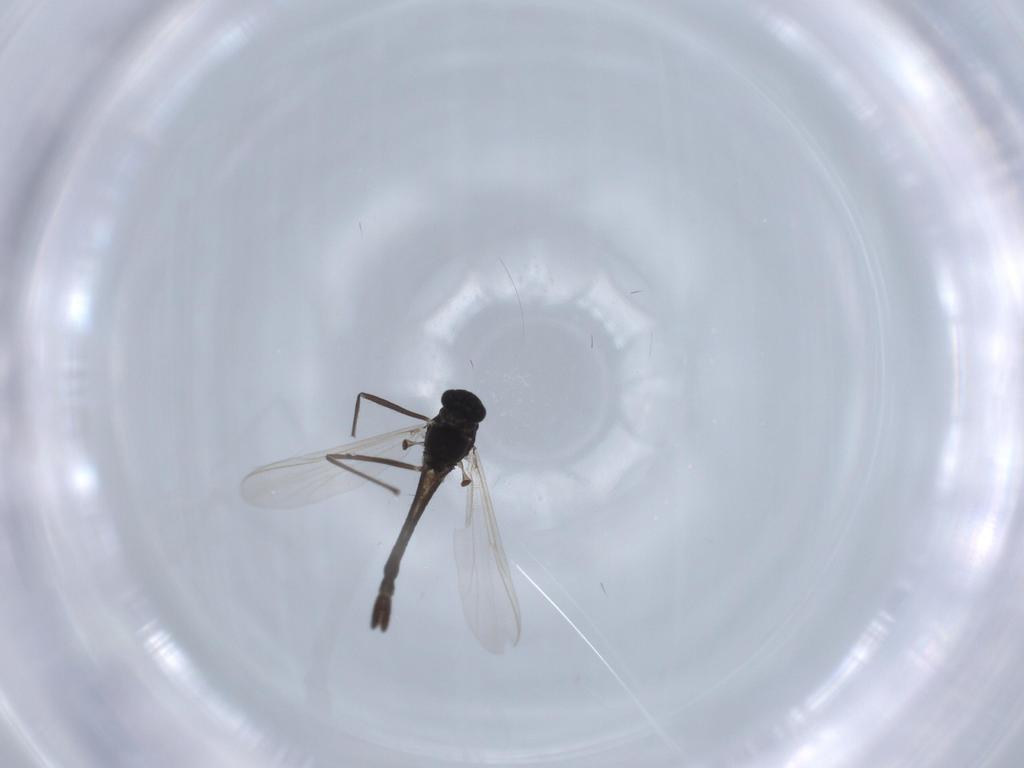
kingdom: Animalia
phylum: Arthropoda
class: Insecta
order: Diptera
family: Chironomidae
